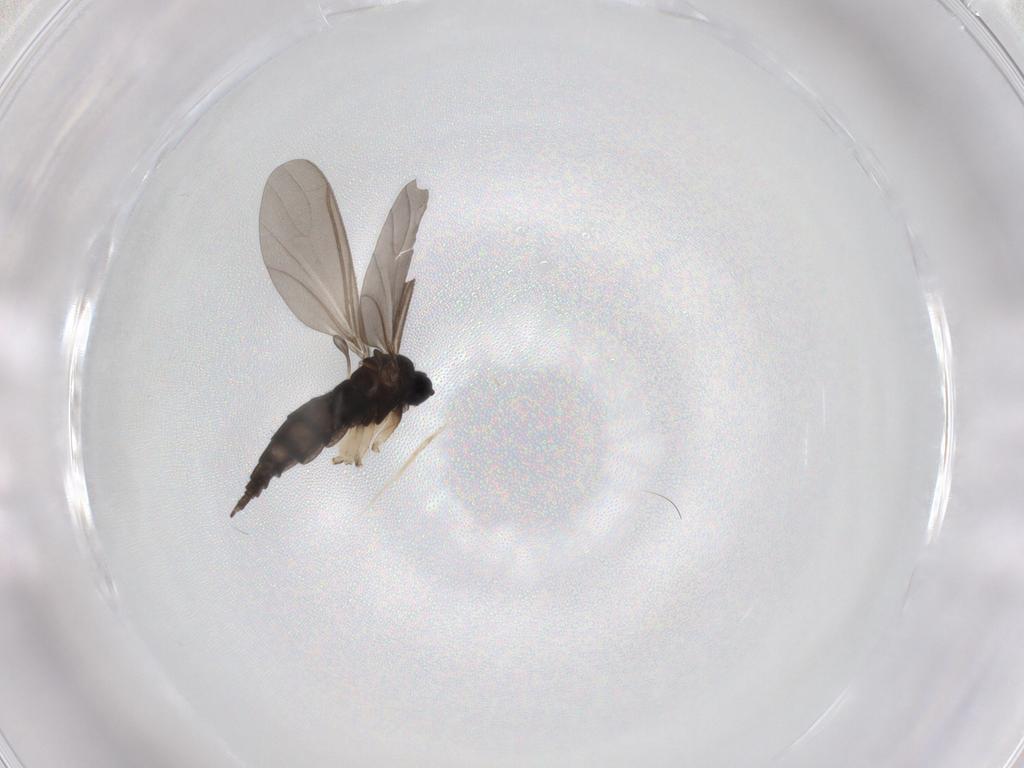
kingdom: Animalia
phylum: Arthropoda
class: Insecta
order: Diptera
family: Sciaridae
